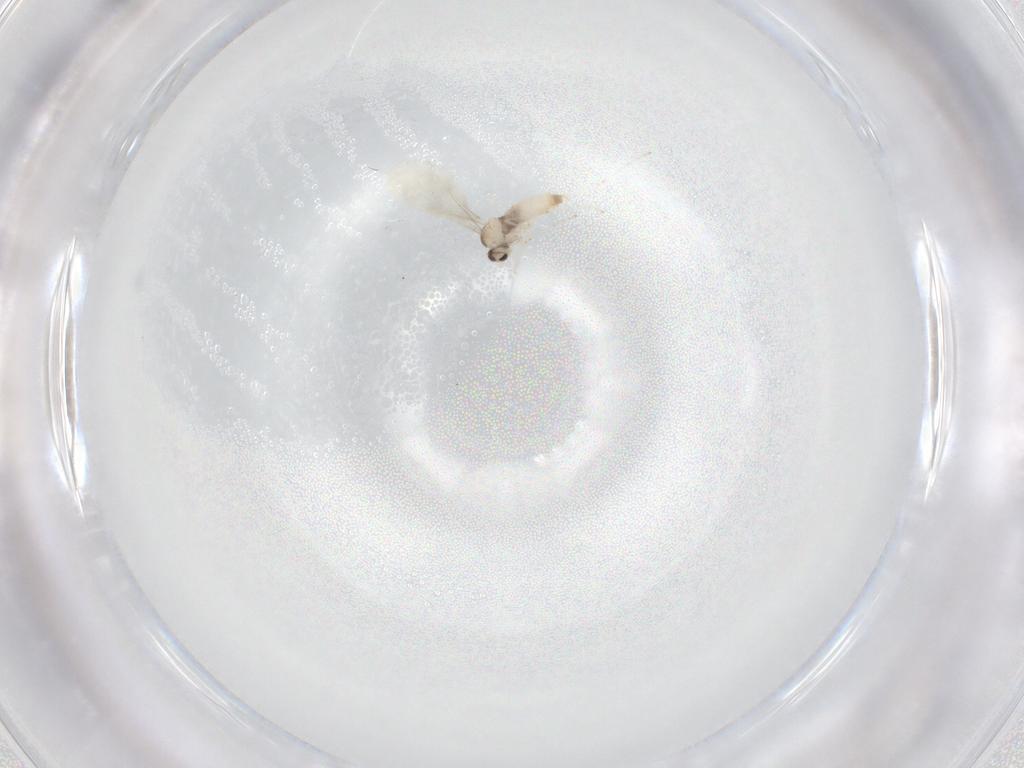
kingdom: Animalia
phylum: Arthropoda
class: Insecta
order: Diptera
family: Cecidomyiidae
